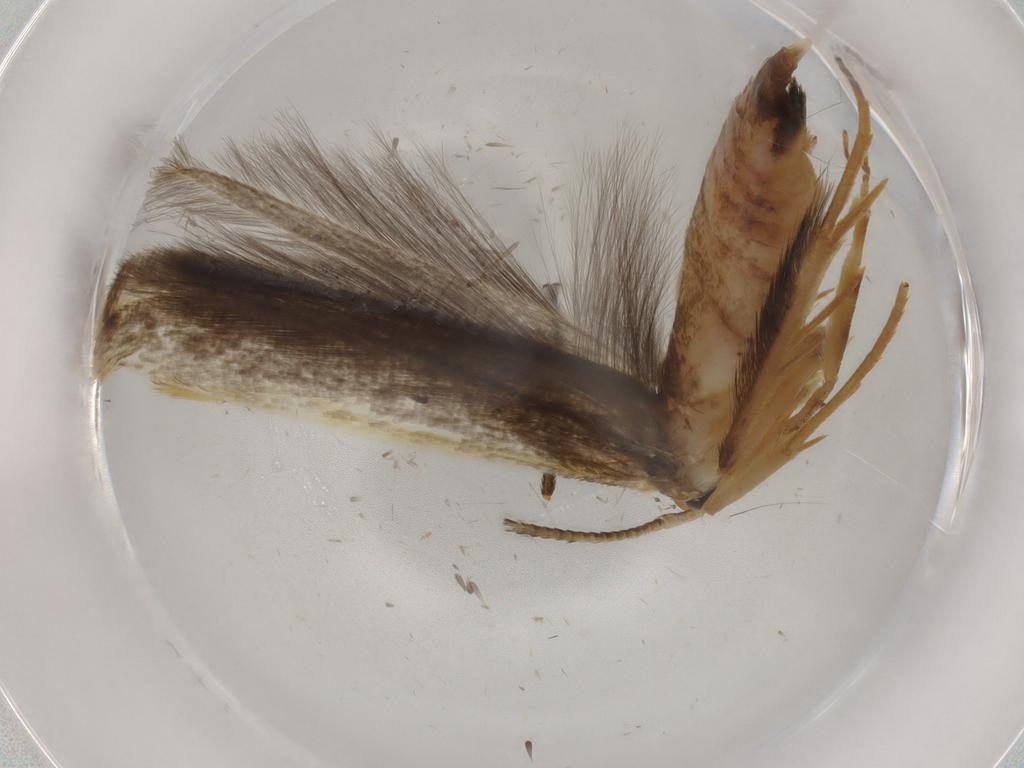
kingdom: Animalia
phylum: Arthropoda
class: Insecta
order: Lepidoptera
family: Pterolonchidae
